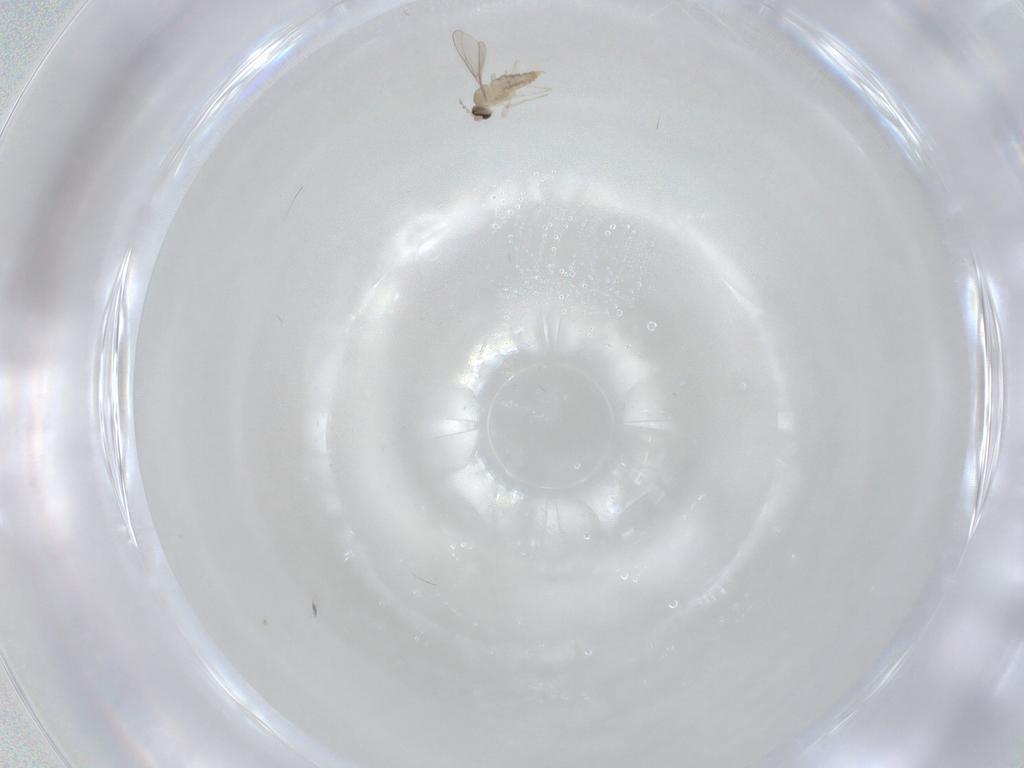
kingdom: Animalia
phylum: Arthropoda
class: Insecta
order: Diptera
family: Cecidomyiidae
